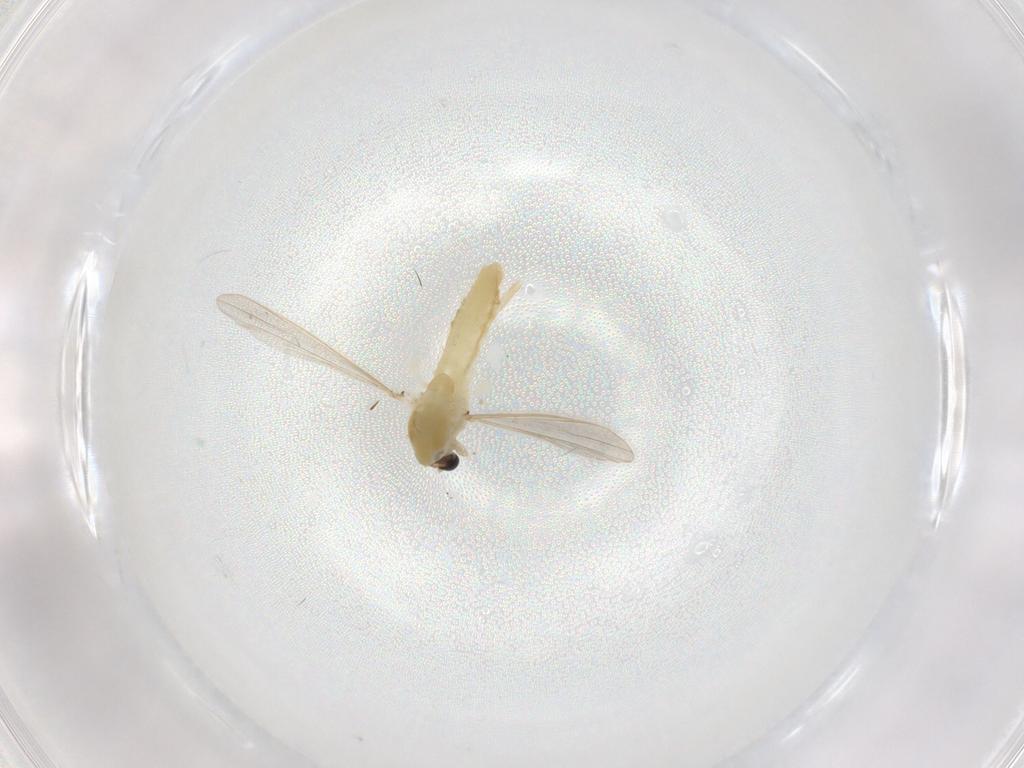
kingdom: Animalia
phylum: Arthropoda
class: Insecta
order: Diptera
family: Chironomidae
